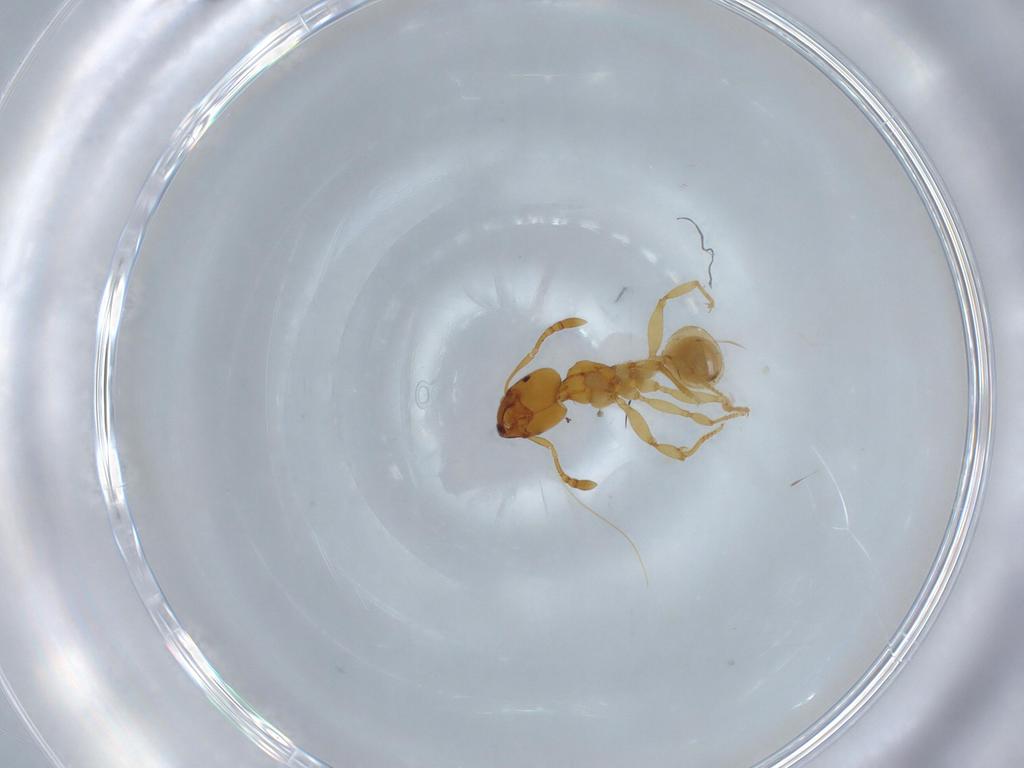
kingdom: Animalia
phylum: Arthropoda
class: Insecta
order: Hymenoptera
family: Formicidae
